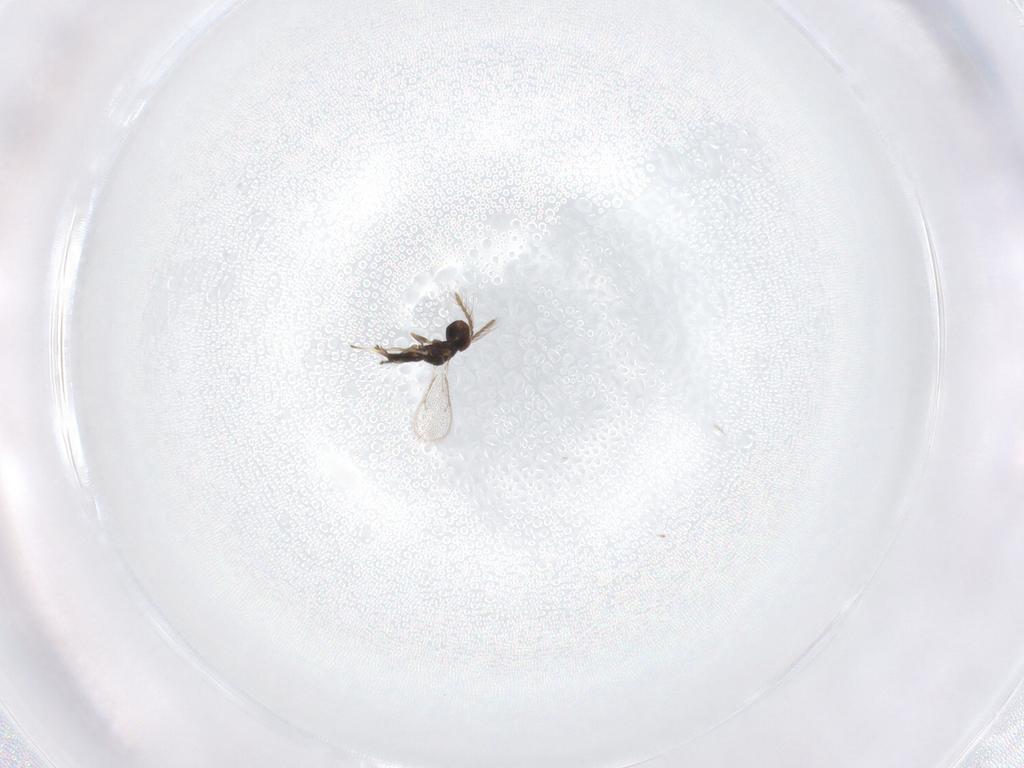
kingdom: Animalia
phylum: Arthropoda
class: Insecta
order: Hymenoptera
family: Eulophidae
